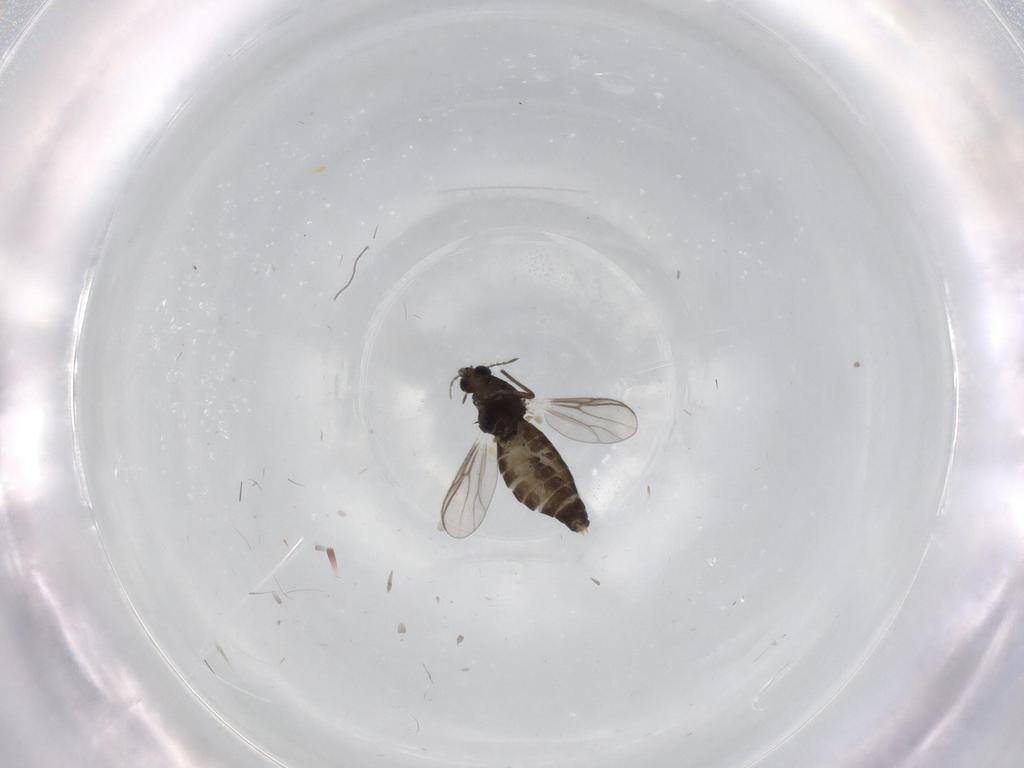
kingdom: Animalia
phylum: Arthropoda
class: Insecta
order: Diptera
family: Chironomidae
